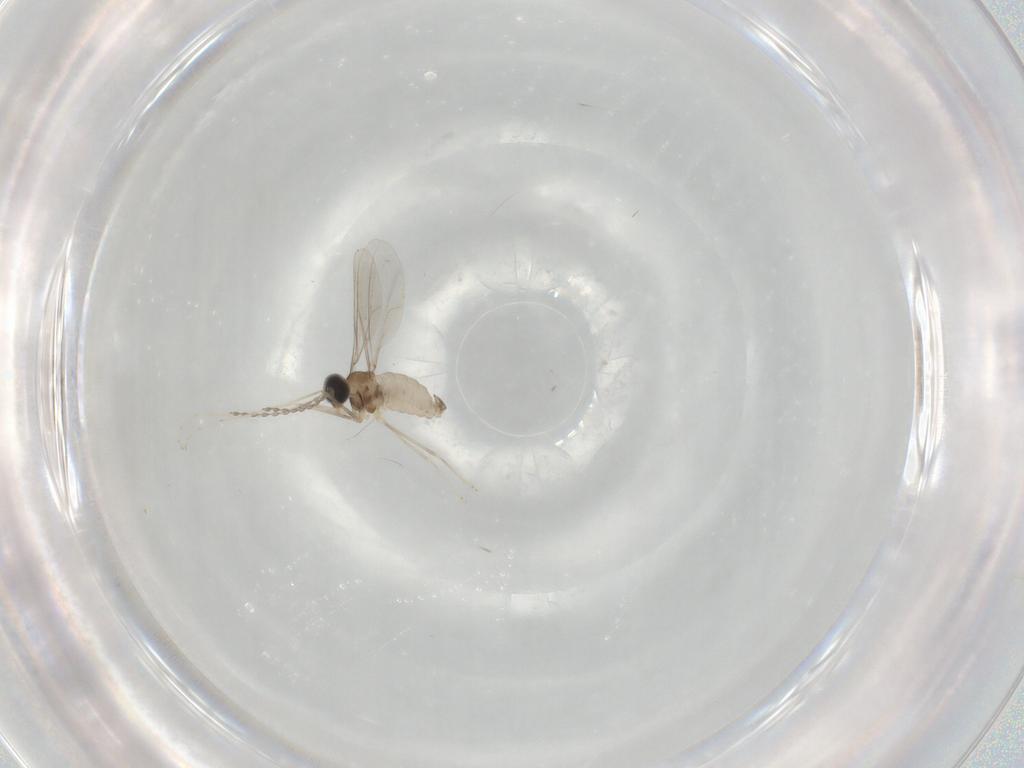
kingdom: Animalia
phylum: Arthropoda
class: Insecta
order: Diptera
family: Cecidomyiidae
